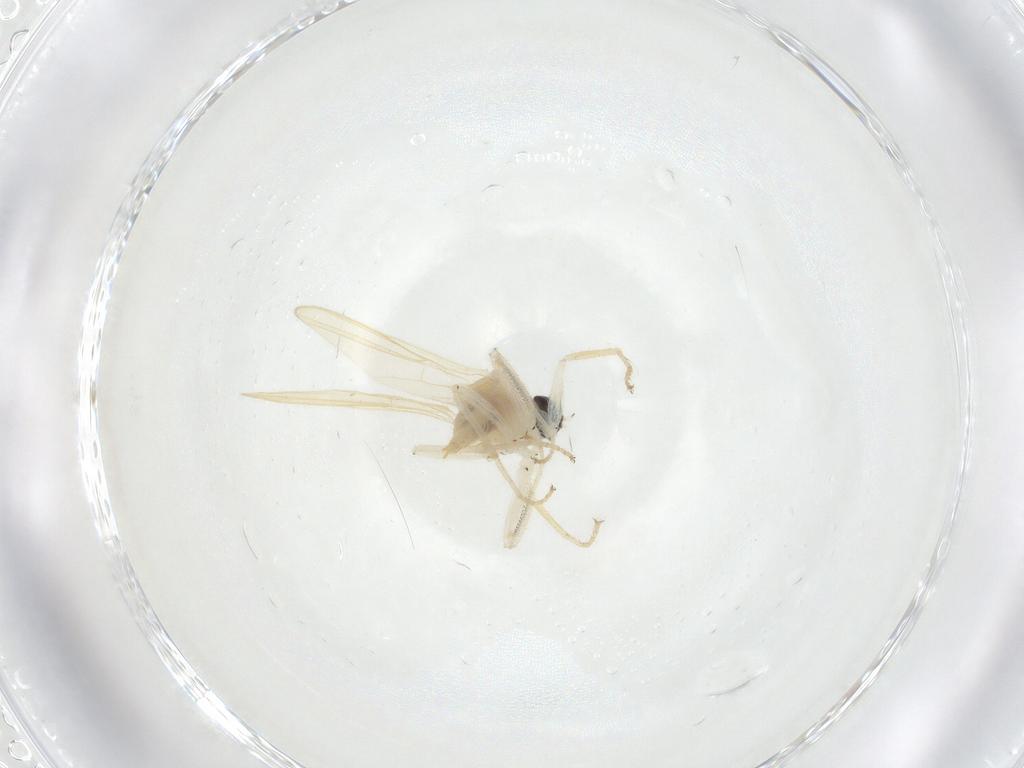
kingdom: Animalia
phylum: Arthropoda
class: Insecta
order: Diptera
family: Hybotidae
